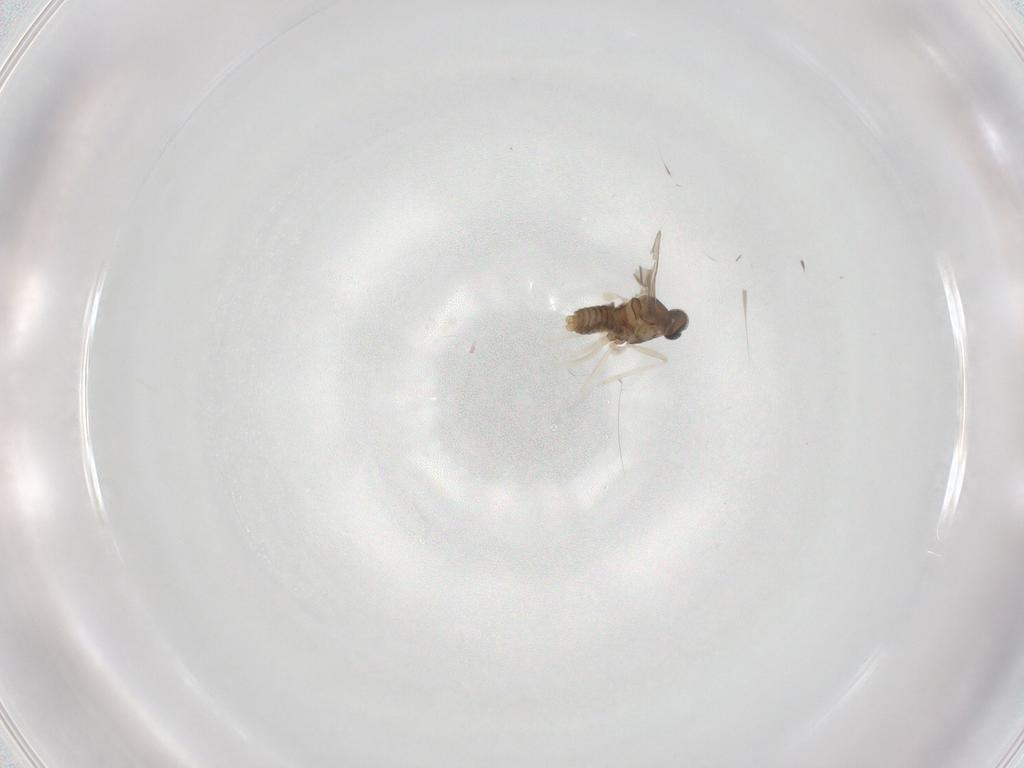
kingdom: Animalia
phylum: Arthropoda
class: Insecta
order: Diptera
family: Cecidomyiidae
